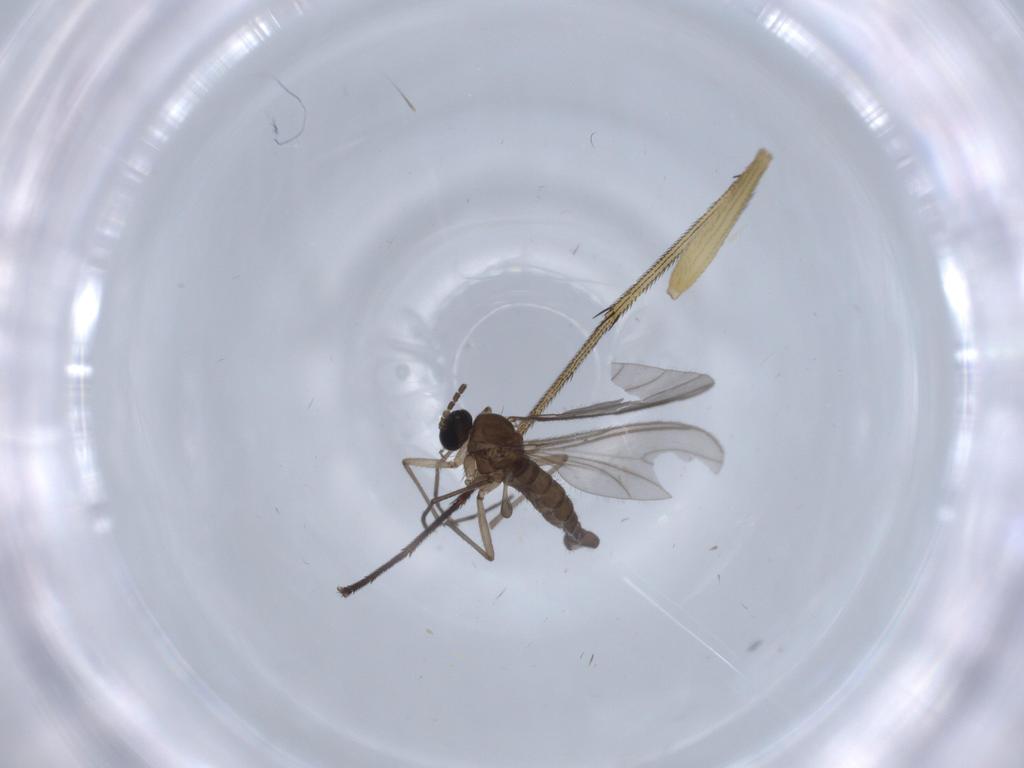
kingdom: Animalia
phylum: Arthropoda
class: Insecta
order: Diptera
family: Dolichopodidae
